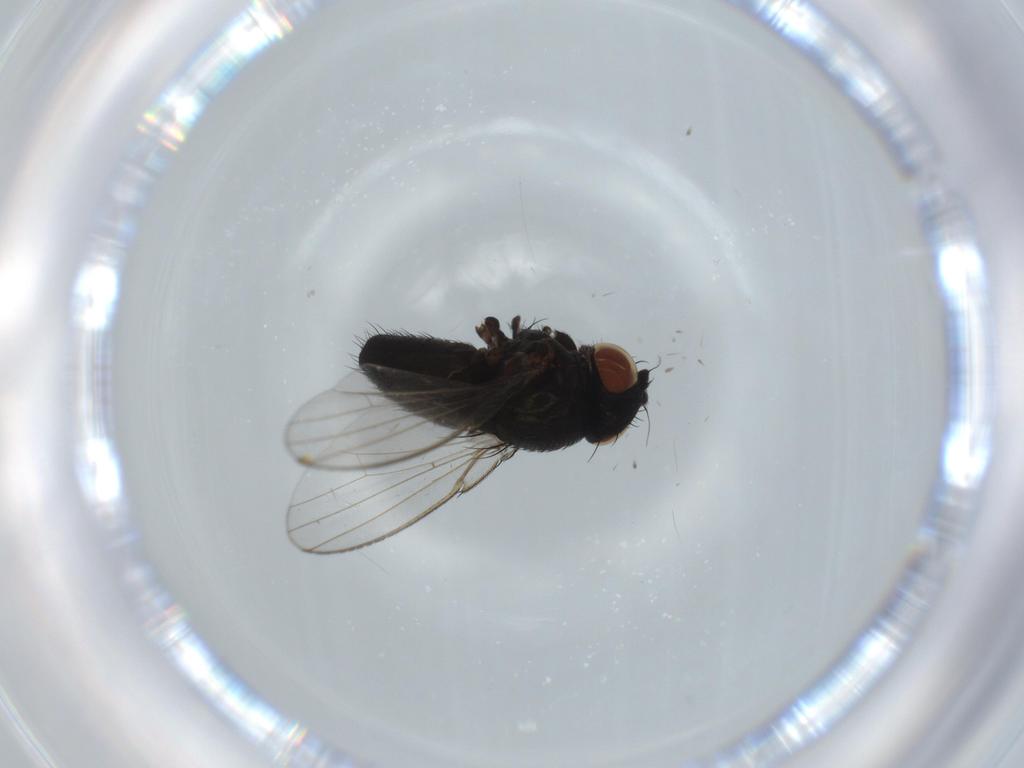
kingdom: Animalia
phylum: Arthropoda
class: Insecta
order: Diptera
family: Milichiidae
